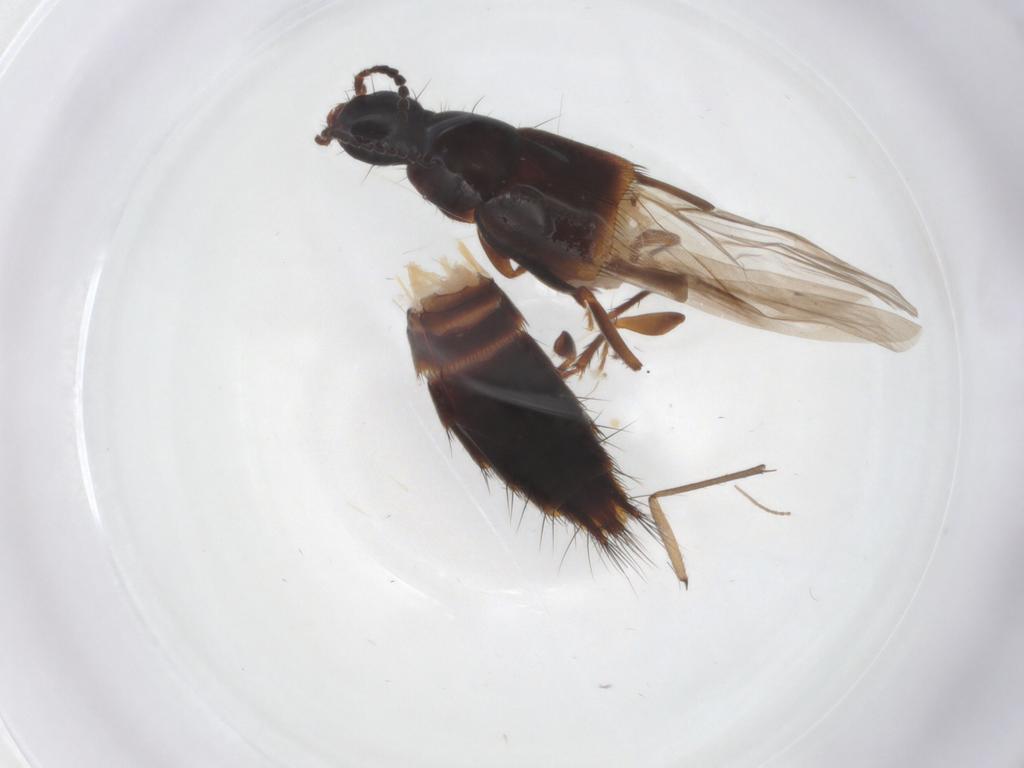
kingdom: Animalia
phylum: Arthropoda
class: Insecta
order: Coleoptera
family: Staphylinidae
